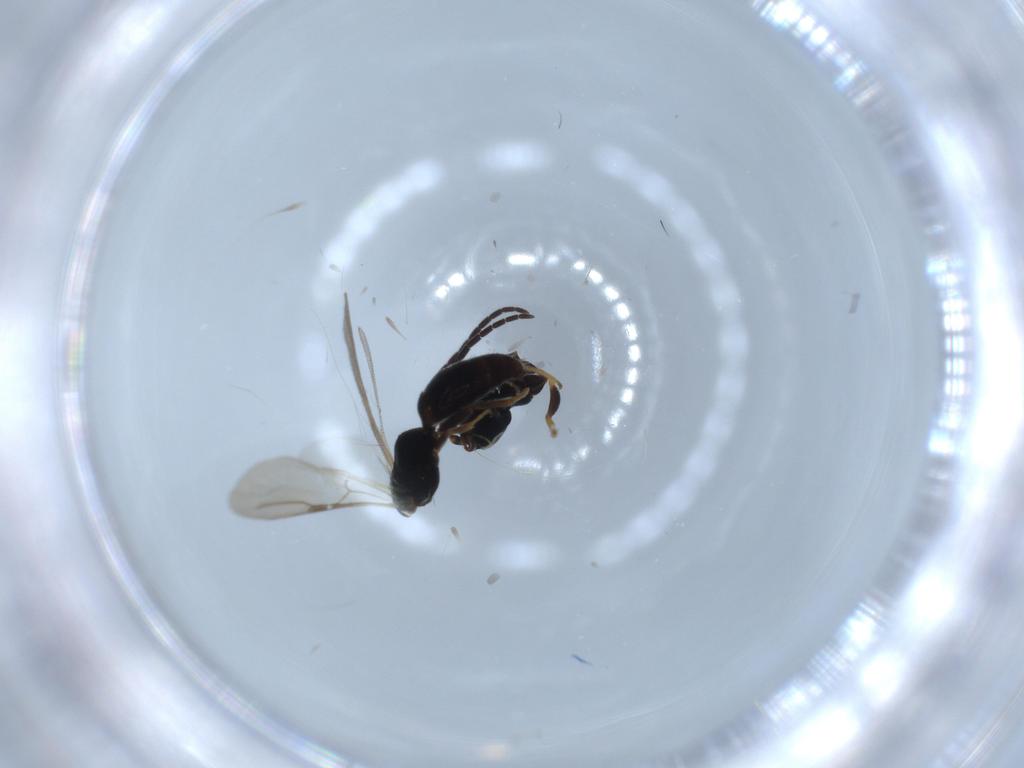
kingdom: Animalia
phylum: Arthropoda
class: Insecta
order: Hymenoptera
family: Bethylidae
